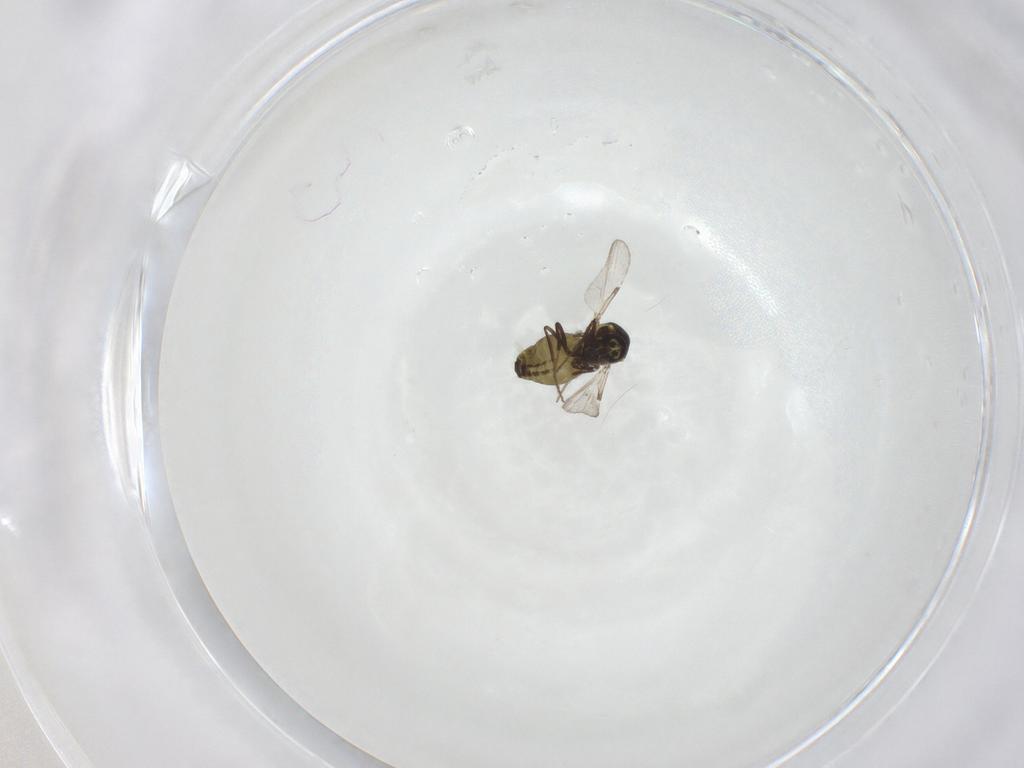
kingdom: Animalia
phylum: Arthropoda
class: Insecta
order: Diptera
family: Ceratopogonidae
